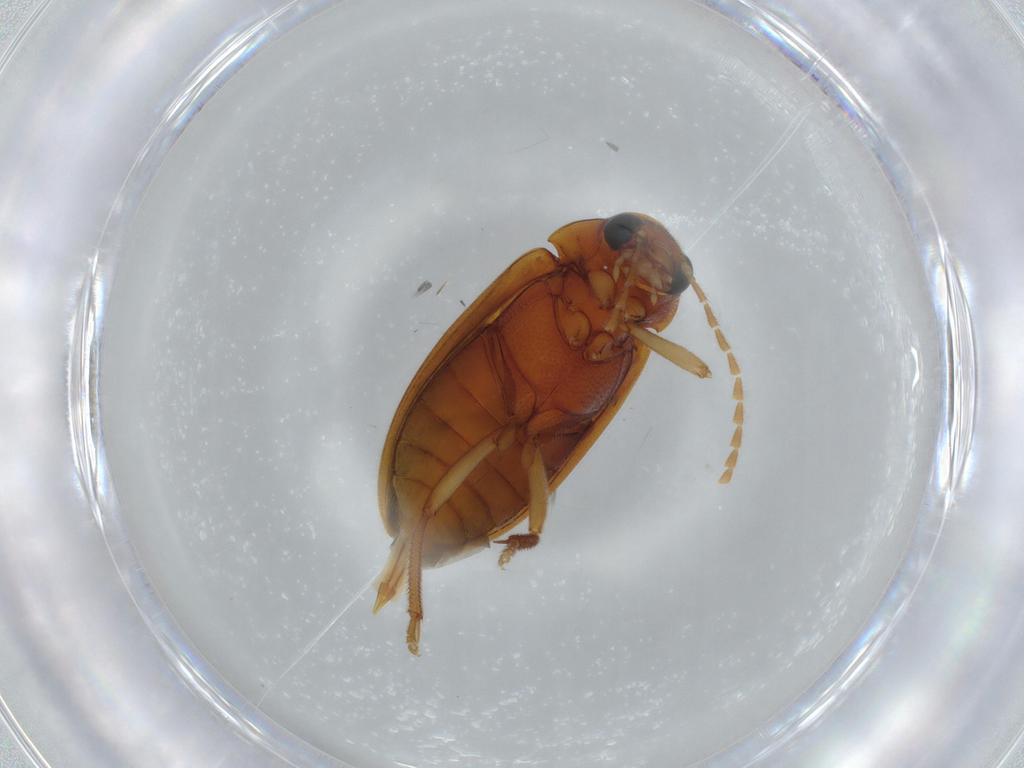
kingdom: Animalia
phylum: Arthropoda
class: Insecta
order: Coleoptera
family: Ptilodactylidae
